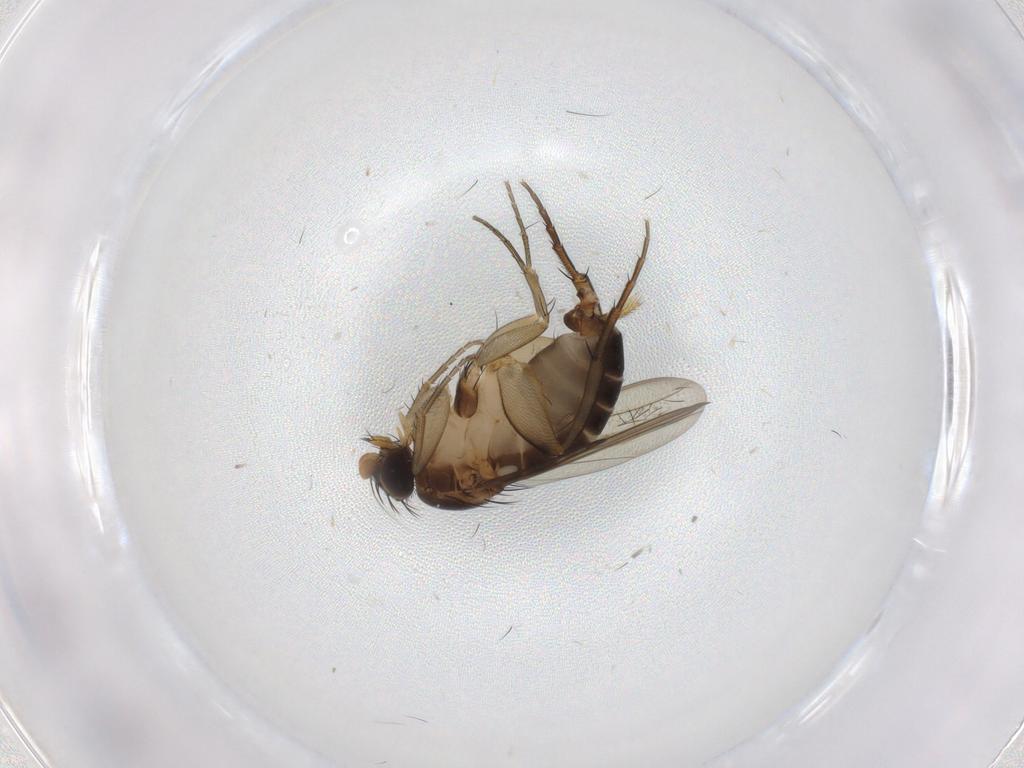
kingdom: Animalia
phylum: Arthropoda
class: Insecta
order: Diptera
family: Phoridae
